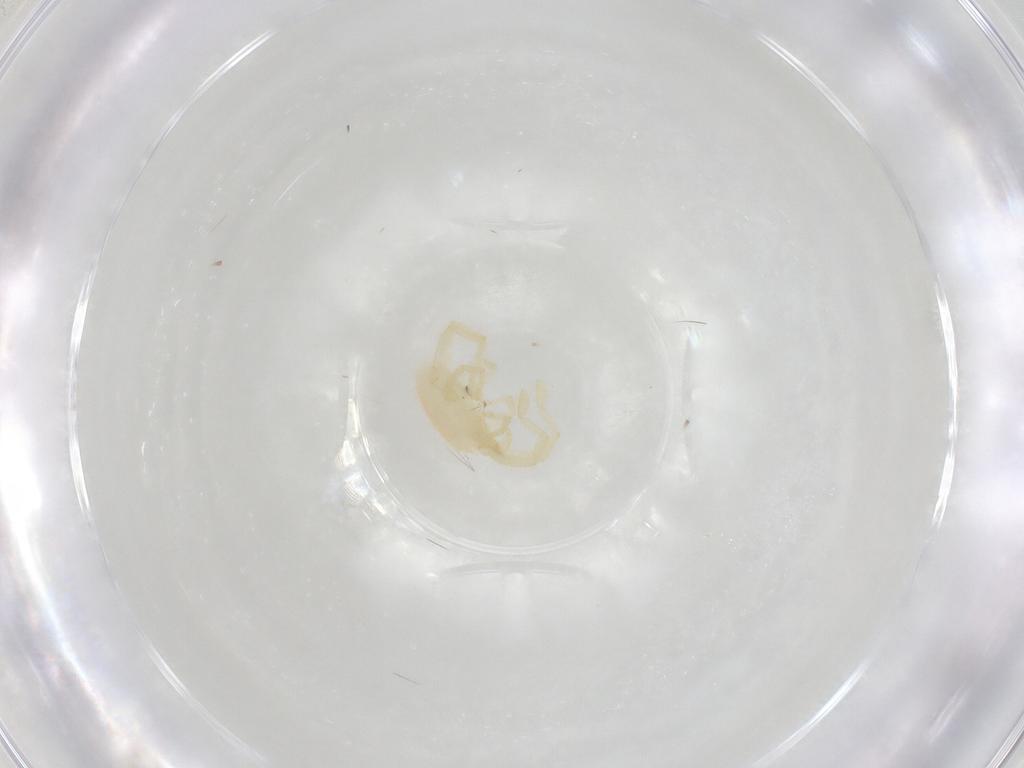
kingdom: Animalia
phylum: Arthropoda
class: Arachnida
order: Trombidiformes
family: Erythraeidae
